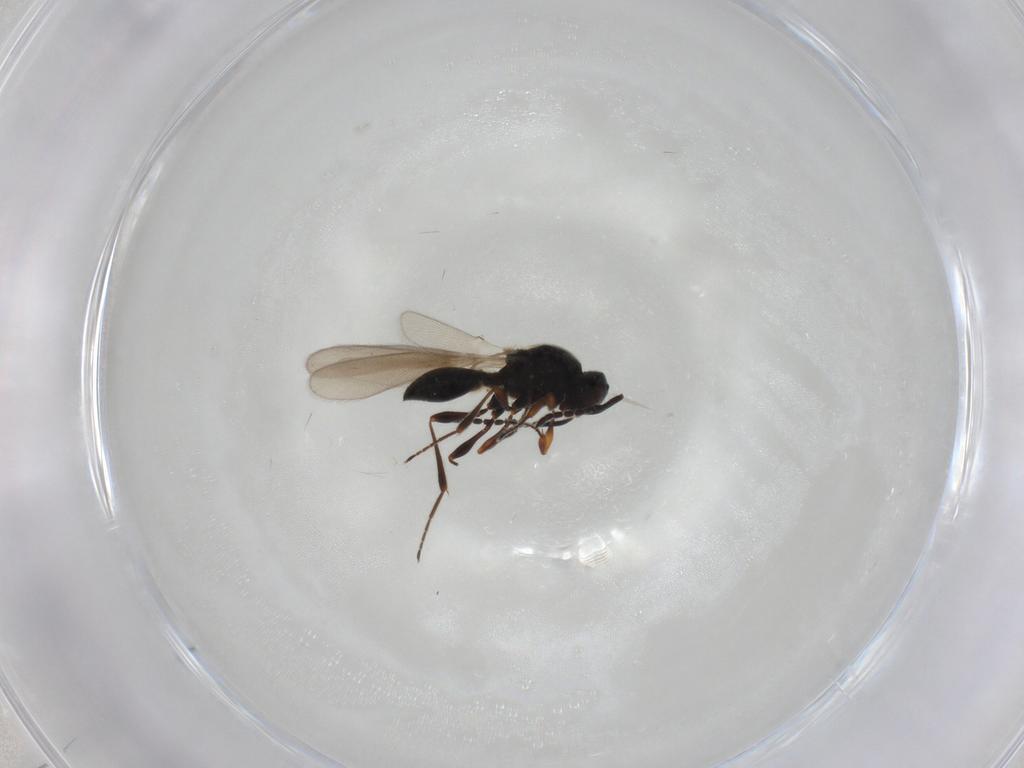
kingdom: Animalia
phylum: Arthropoda
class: Insecta
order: Hymenoptera
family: Platygastridae
